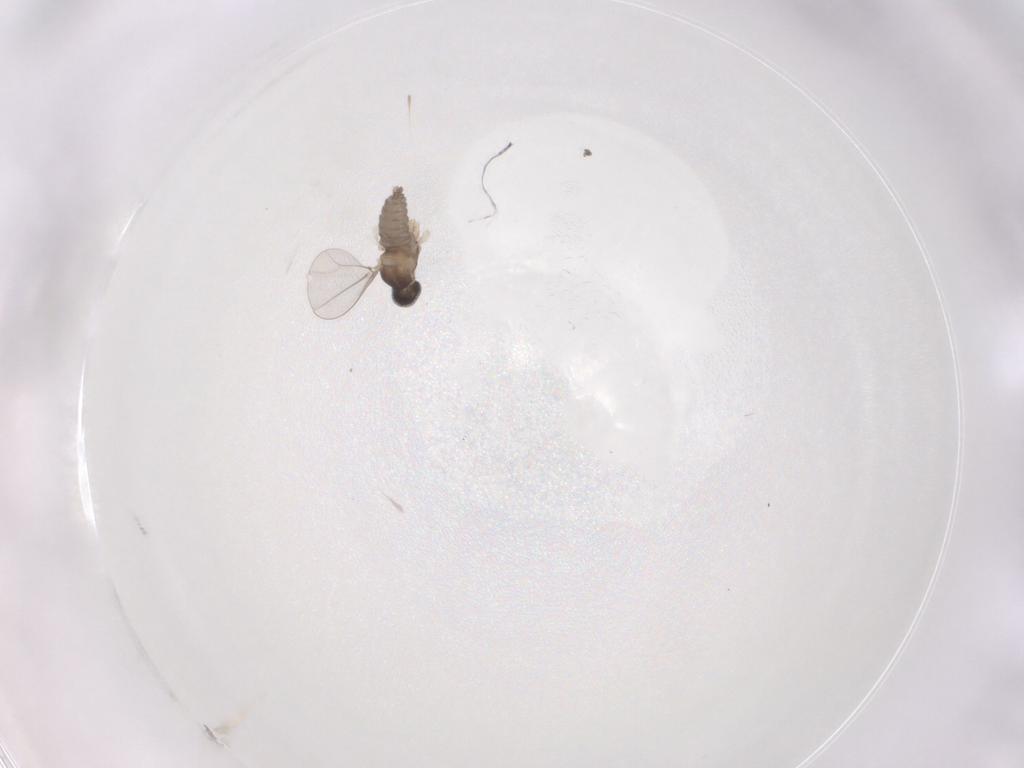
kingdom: Animalia
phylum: Arthropoda
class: Insecta
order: Diptera
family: Cecidomyiidae
